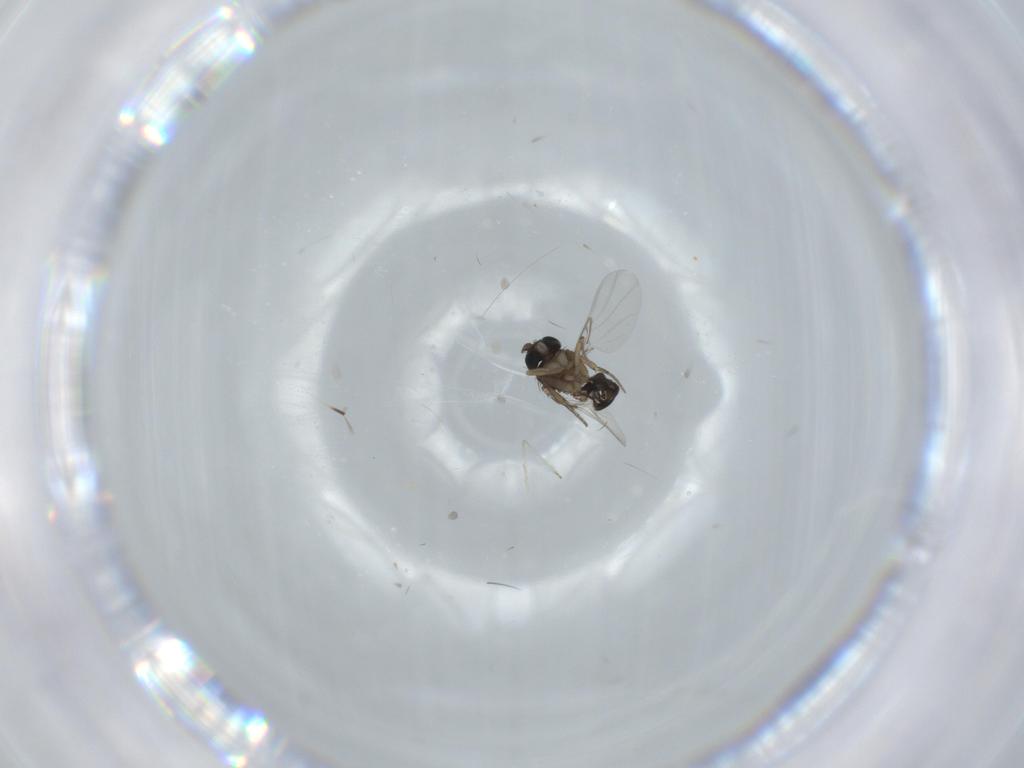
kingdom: Animalia
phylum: Arthropoda
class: Insecta
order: Diptera
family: Phoridae
